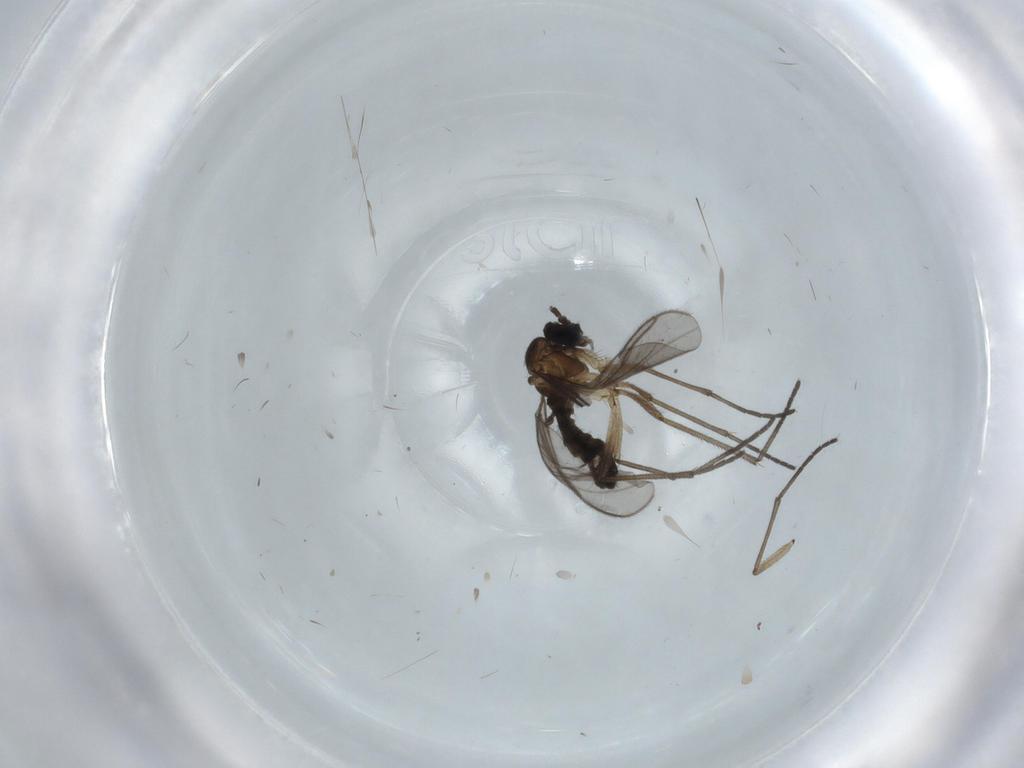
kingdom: Animalia
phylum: Arthropoda
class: Insecta
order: Diptera
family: Sciaridae
